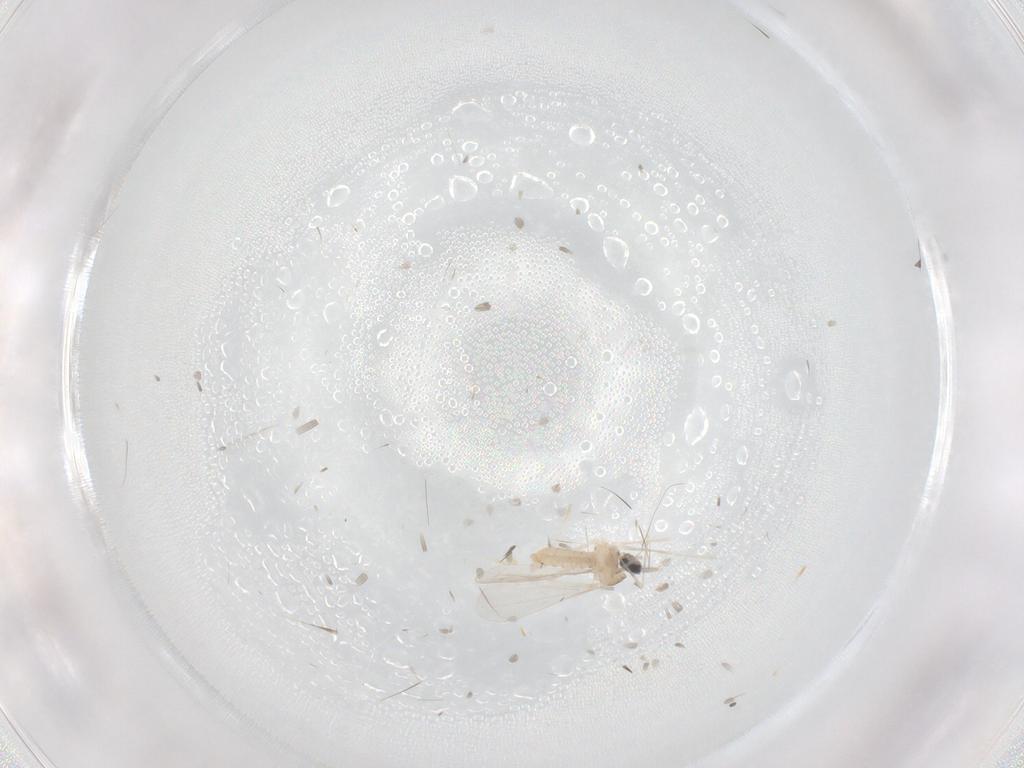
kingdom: Animalia
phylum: Arthropoda
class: Insecta
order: Diptera
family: Cecidomyiidae
